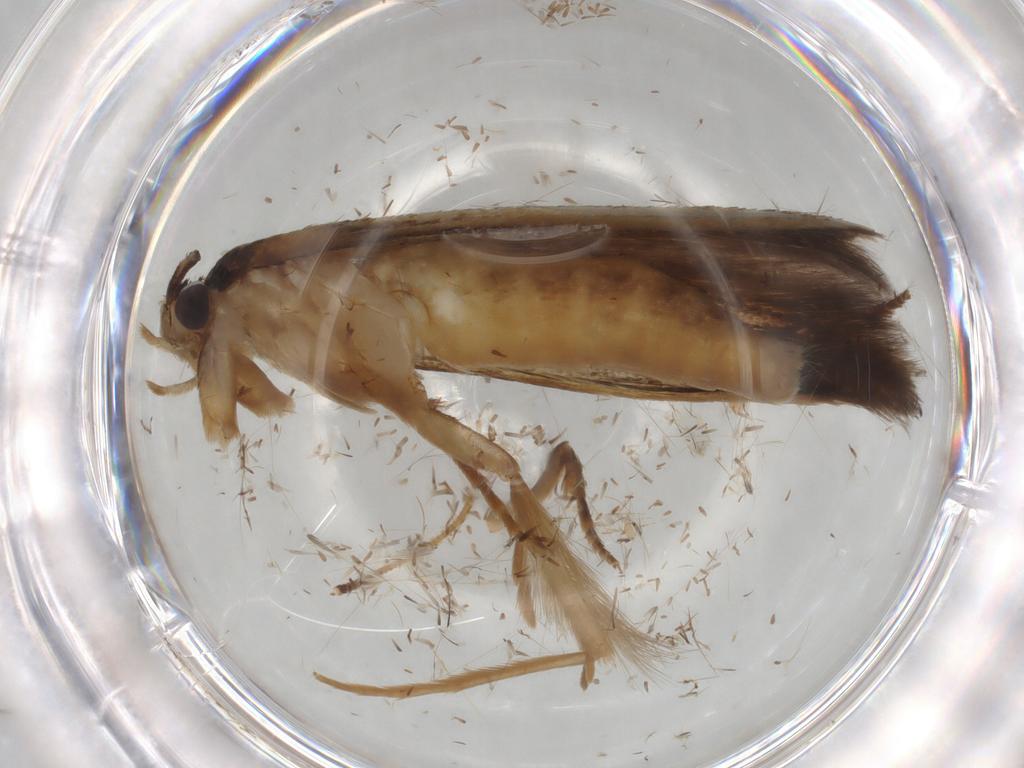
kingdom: Animalia
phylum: Arthropoda
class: Insecta
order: Lepidoptera
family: Tineidae
